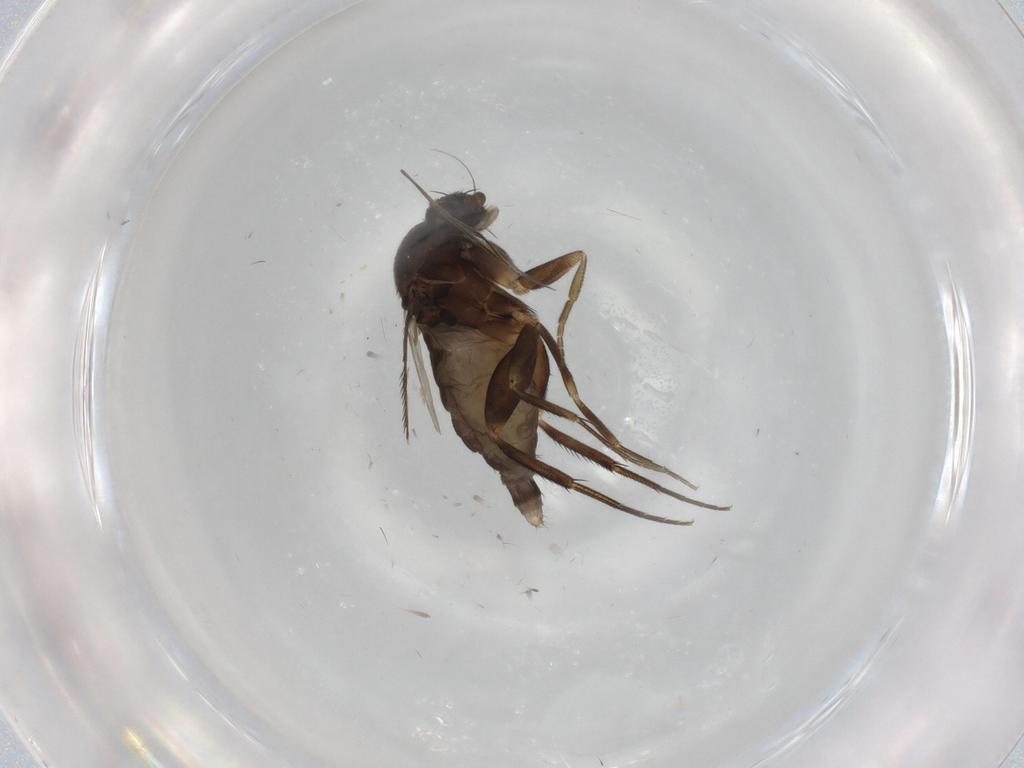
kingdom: Animalia
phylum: Arthropoda
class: Insecta
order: Diptera
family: Phoridae
